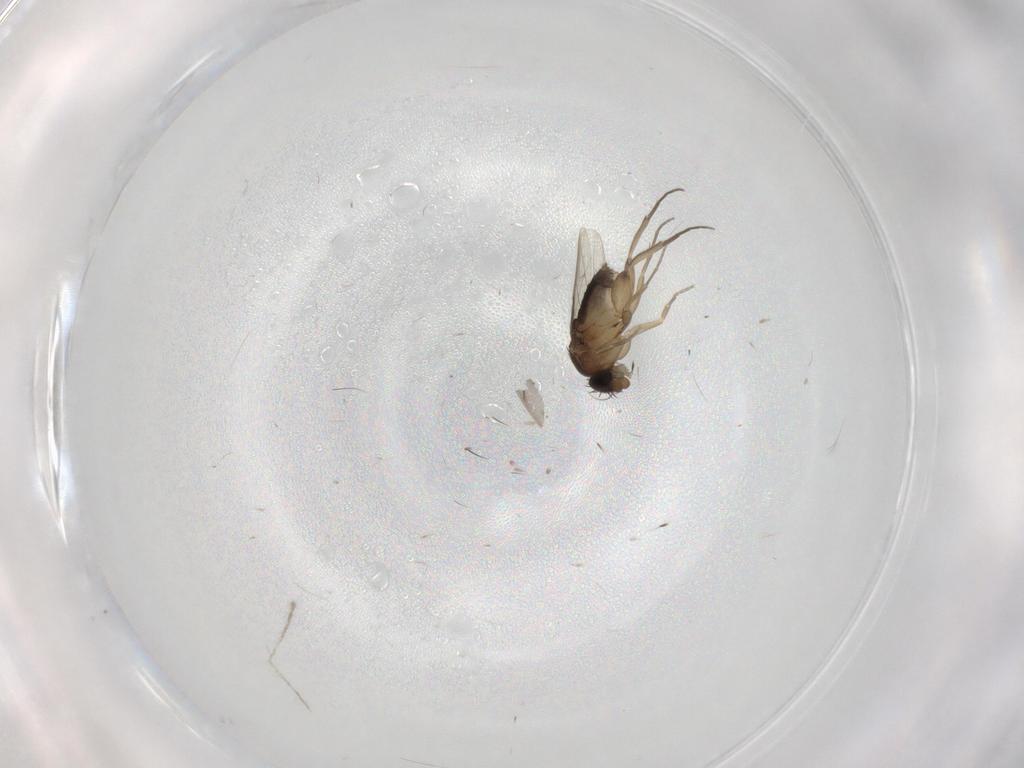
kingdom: Animalia
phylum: Arthropoda
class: Insecta
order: Diptera
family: Phoridae
